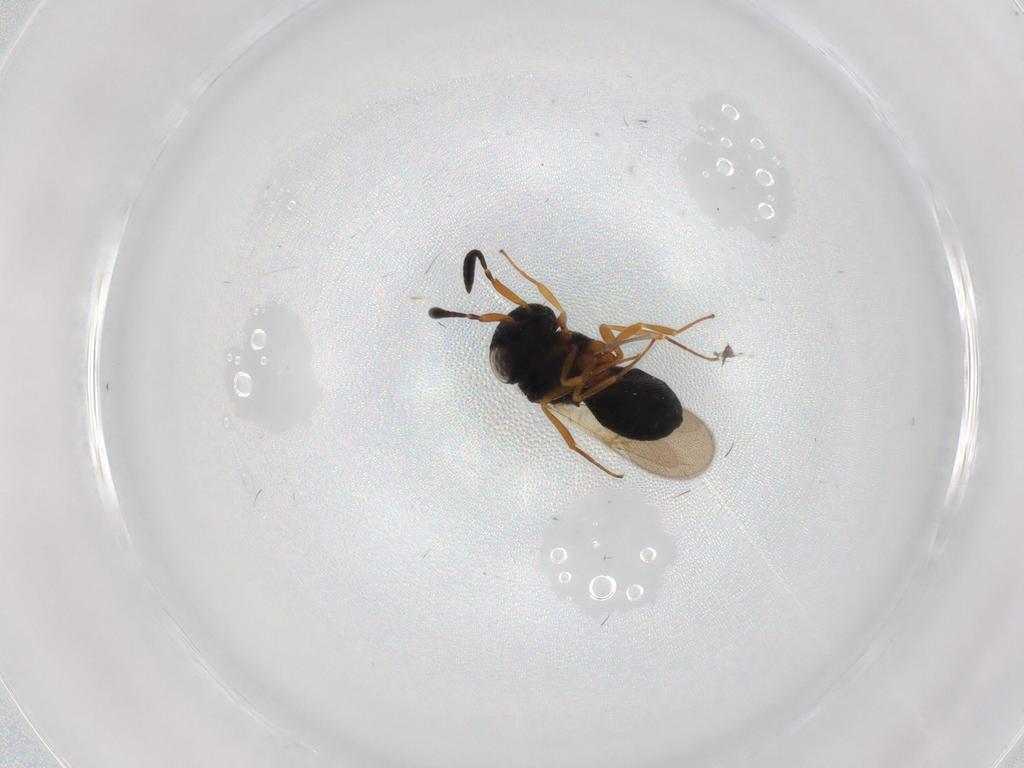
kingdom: Animalia
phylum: Arthropoda
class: Insecta
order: Hymenoptera
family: Scelionidae
